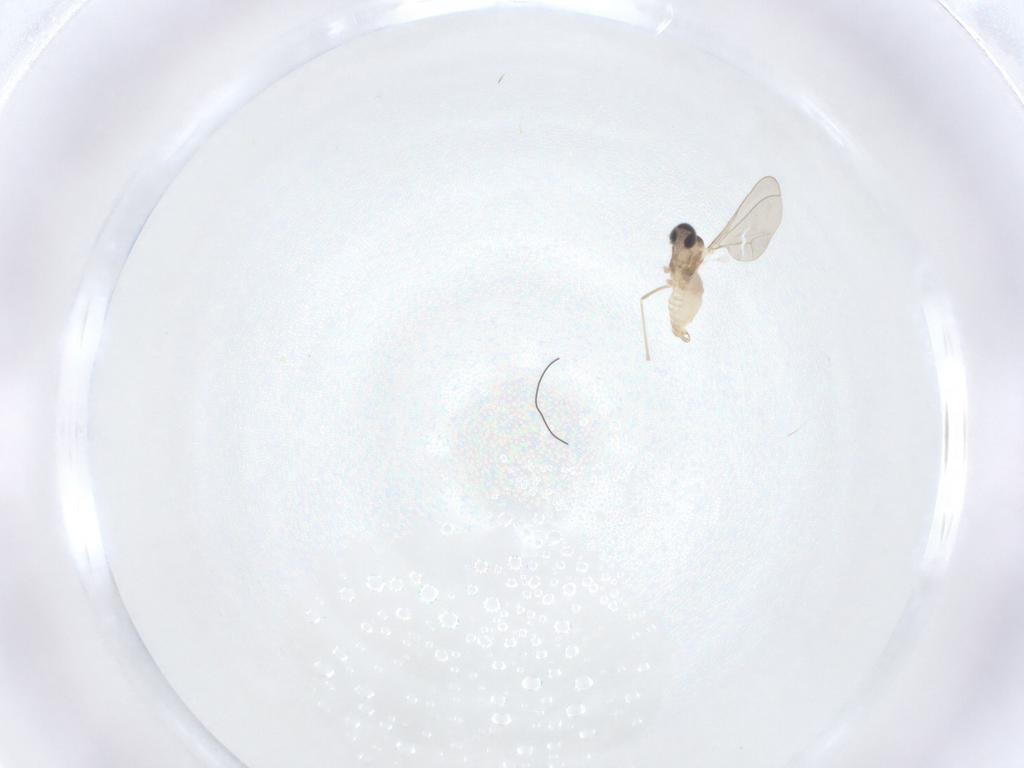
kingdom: Animalia
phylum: Arthropoda
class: Insecta
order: Diptera
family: Cecidomyiidae
